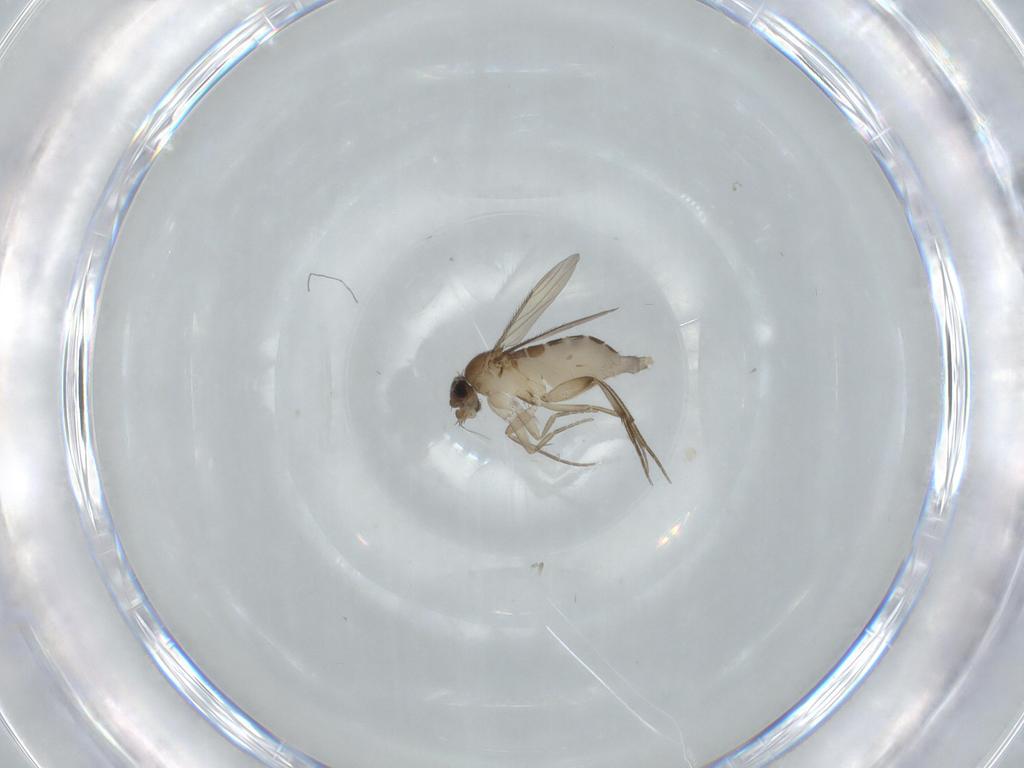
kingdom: Animalia
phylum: Arthropoda
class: Insecta
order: Diptera
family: Phoridae
